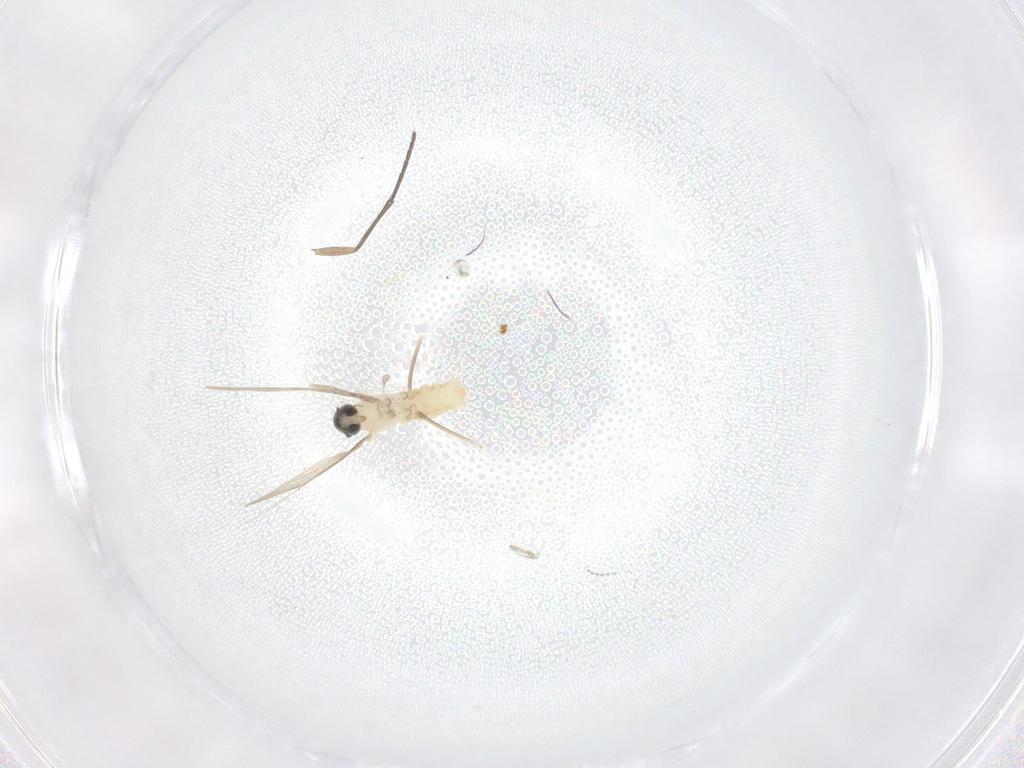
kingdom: Animalia
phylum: Arthropoda
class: Insecta
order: Diptera
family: Cecidomyiidae
